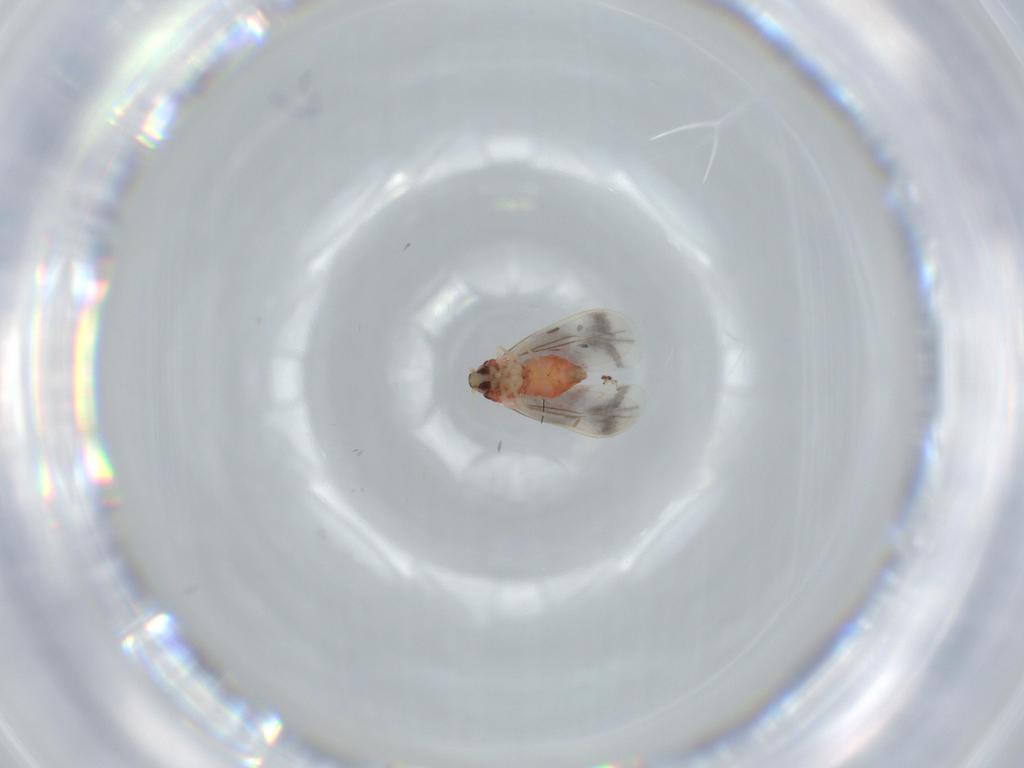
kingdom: Animalia
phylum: Arthropoda
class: Insecta
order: Hemiptera
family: Aleyrodidae
